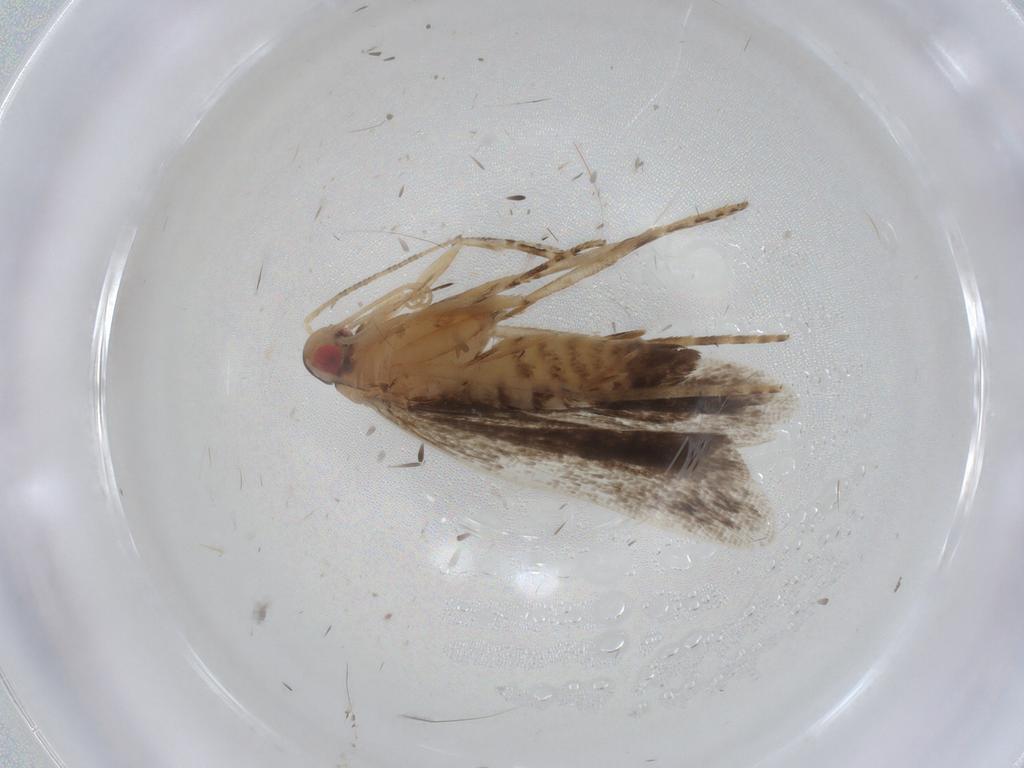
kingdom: Animalia
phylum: Arthropoda
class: Insecta
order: Lepidoptera
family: Gelechiidae
